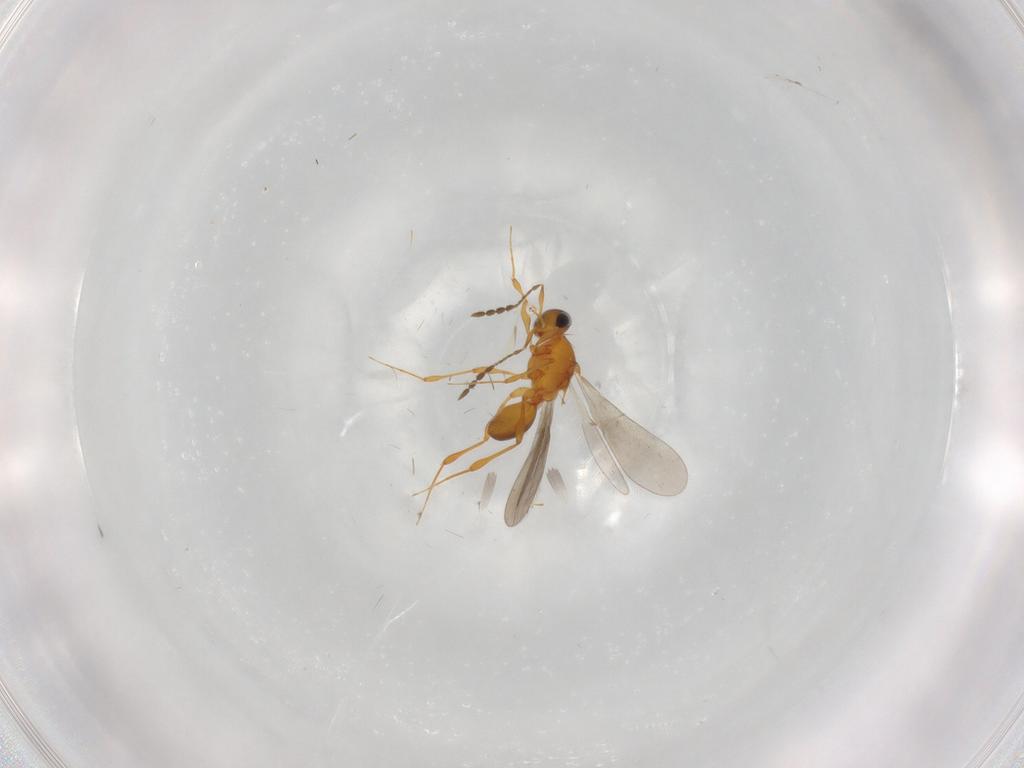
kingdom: Animalia
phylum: Arthropoda
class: Insecta
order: Hymenoptera
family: Platygastridae
